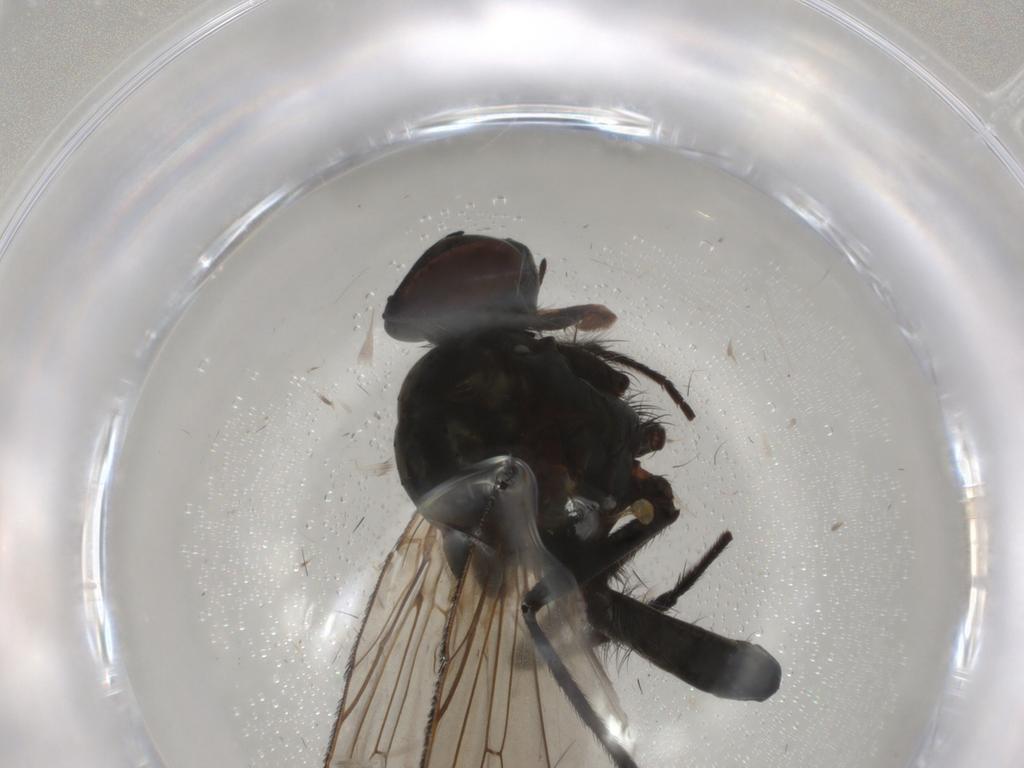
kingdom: Animalia
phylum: Arthropoda
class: Insecta
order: Diptera
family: Anthomyiidae
